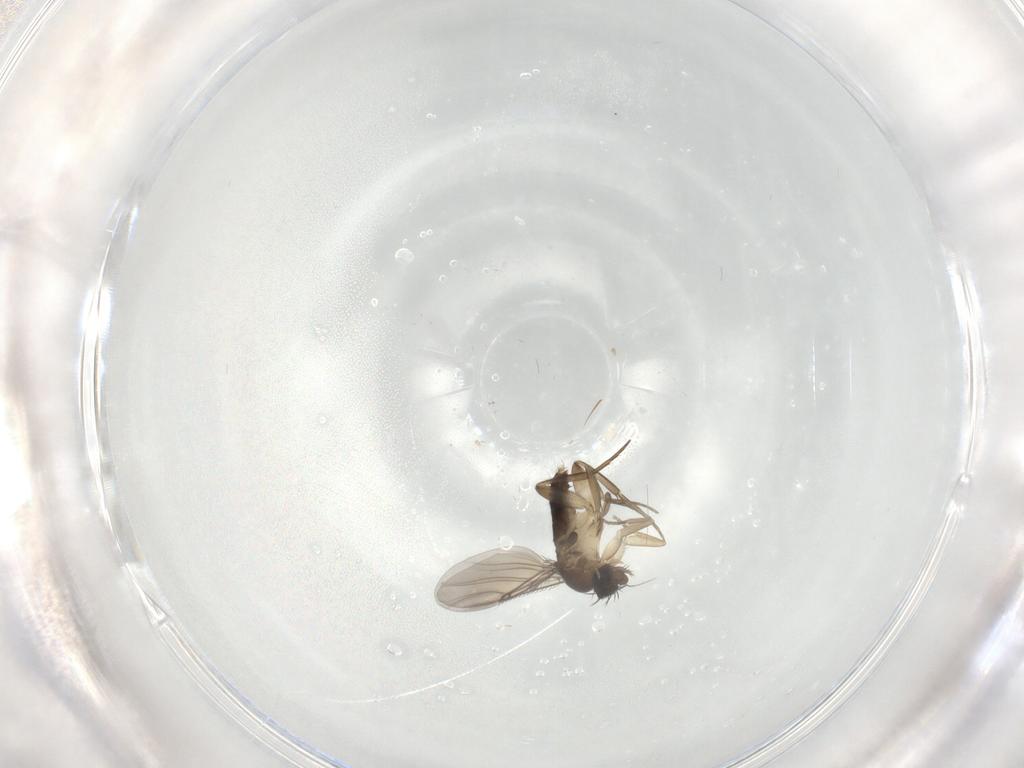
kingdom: Animalia
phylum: Arthropoda
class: Insecta
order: Diptera
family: Phoridae
